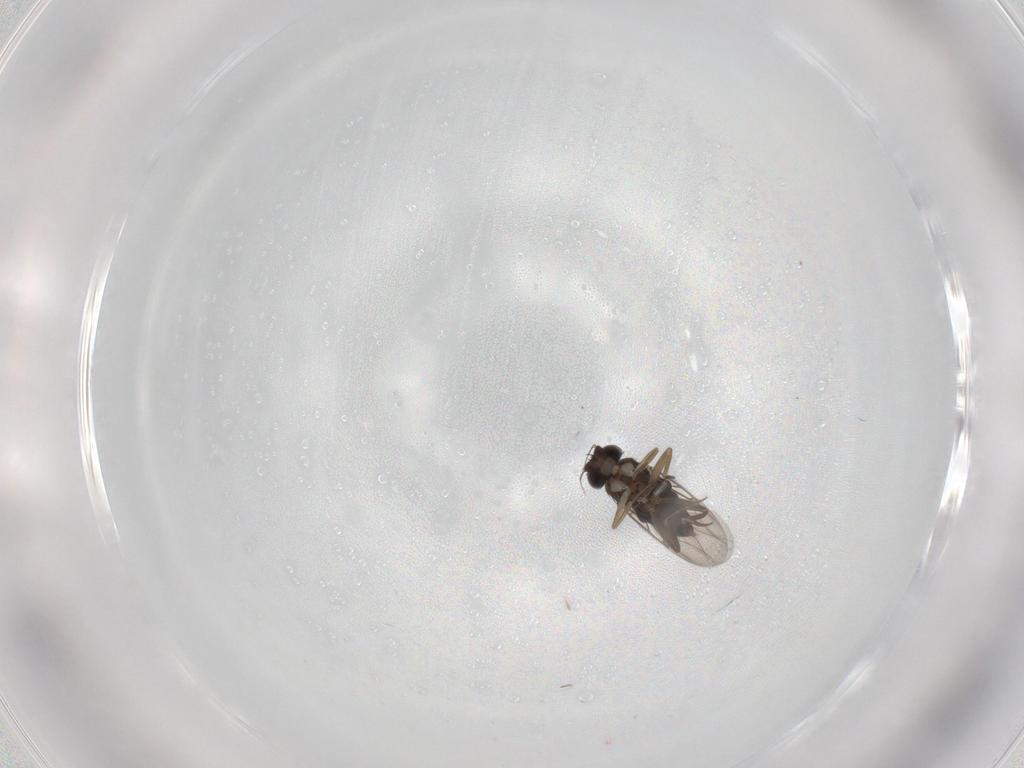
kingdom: Animalia
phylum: Arthropoda
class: Insecta
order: Diptera
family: Phoridae
